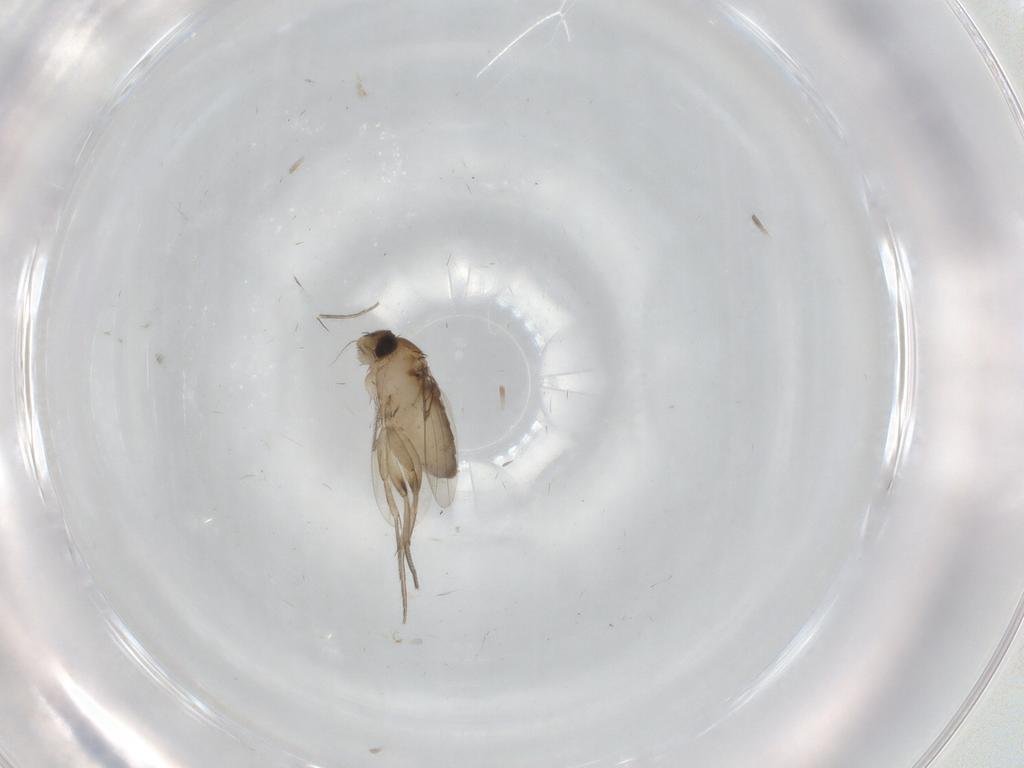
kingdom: Animalia
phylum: Arthropoda
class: Insecta
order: Diptera
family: Phoridae
